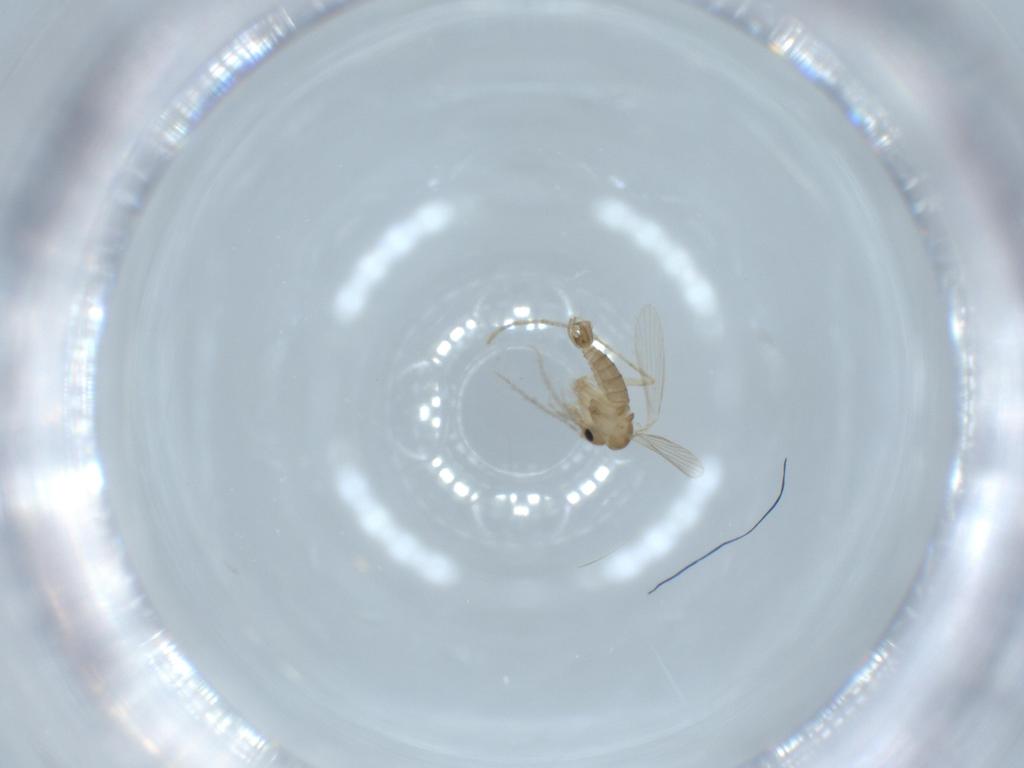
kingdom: Animalia
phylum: Arthropoda
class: Insecta
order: Diptera
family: Psychodidae
